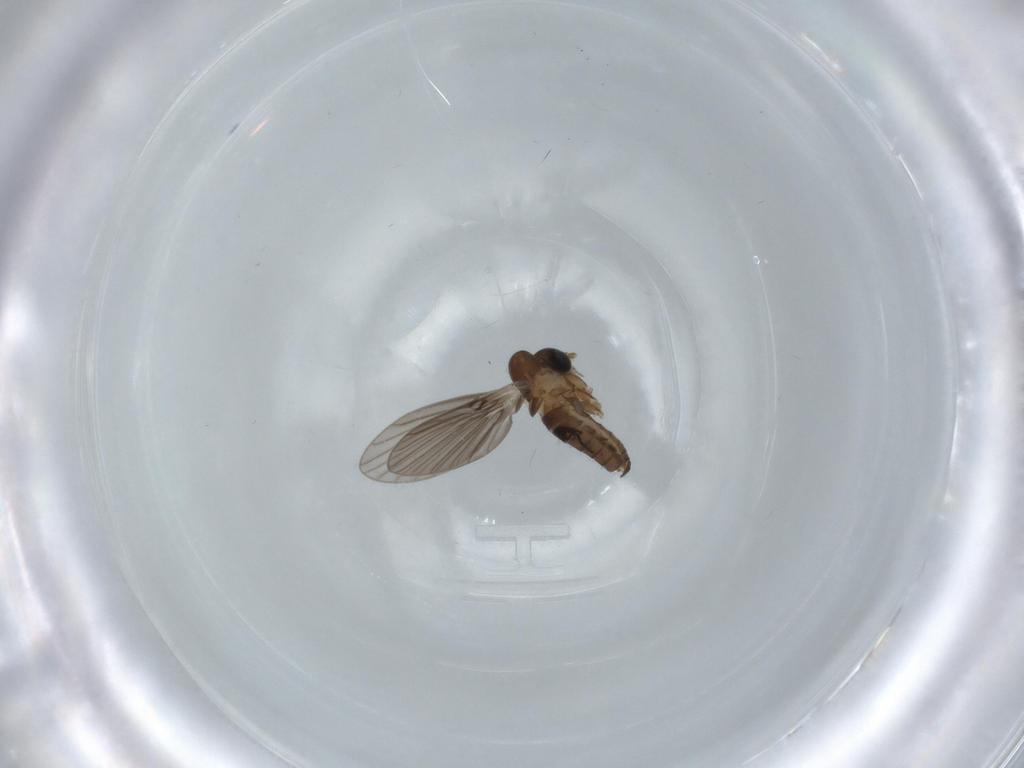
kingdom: Animalia
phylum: Arthropoda
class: Insecta
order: Diptera
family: Psychodidae
